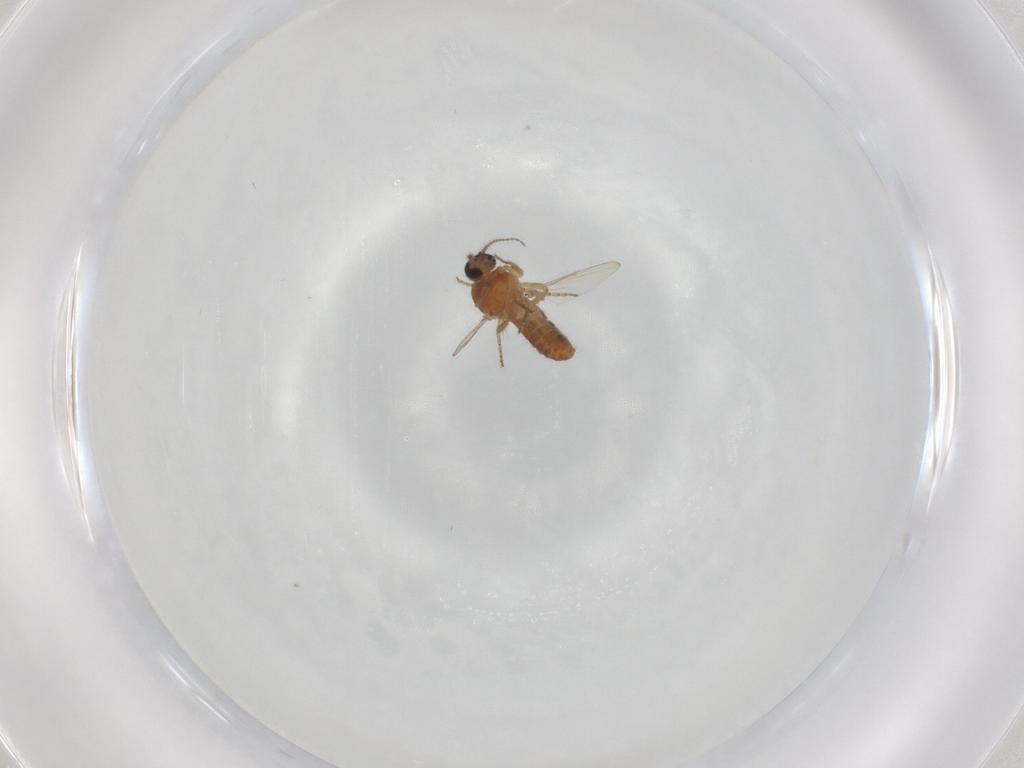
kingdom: Animalia
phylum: Arthropoda
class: Insecta
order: Diptera
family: Ceratopogonidae
